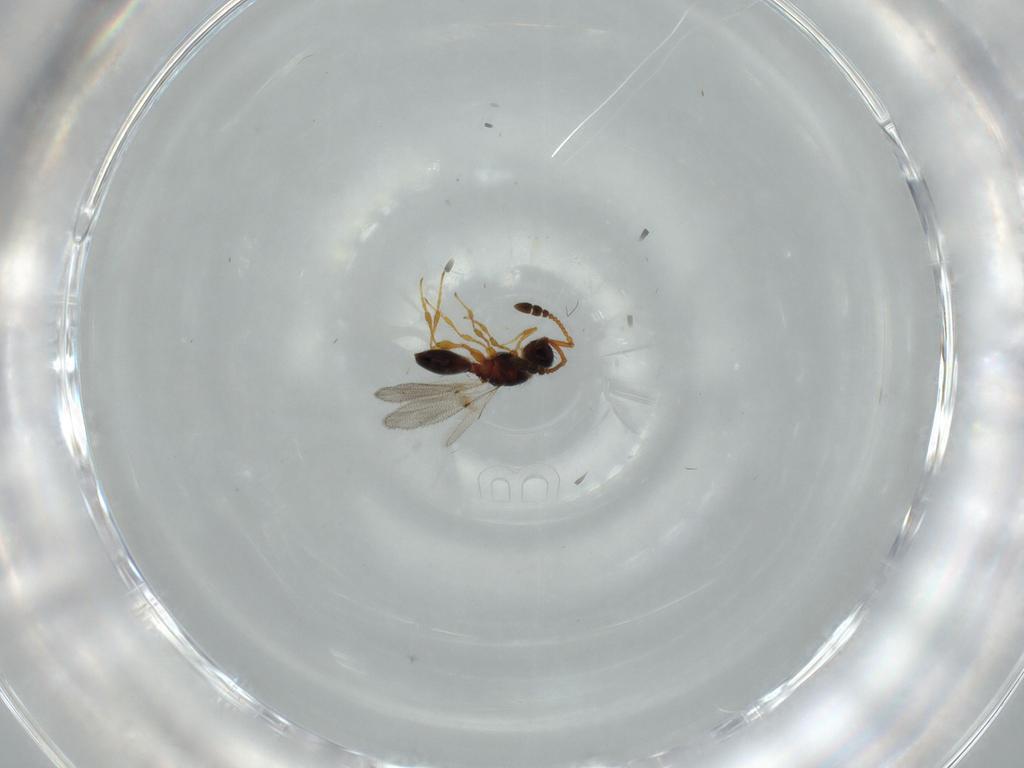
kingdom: Animalia
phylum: Arthropoda
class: Insecta
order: Hymenoptera
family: Diapriidae
